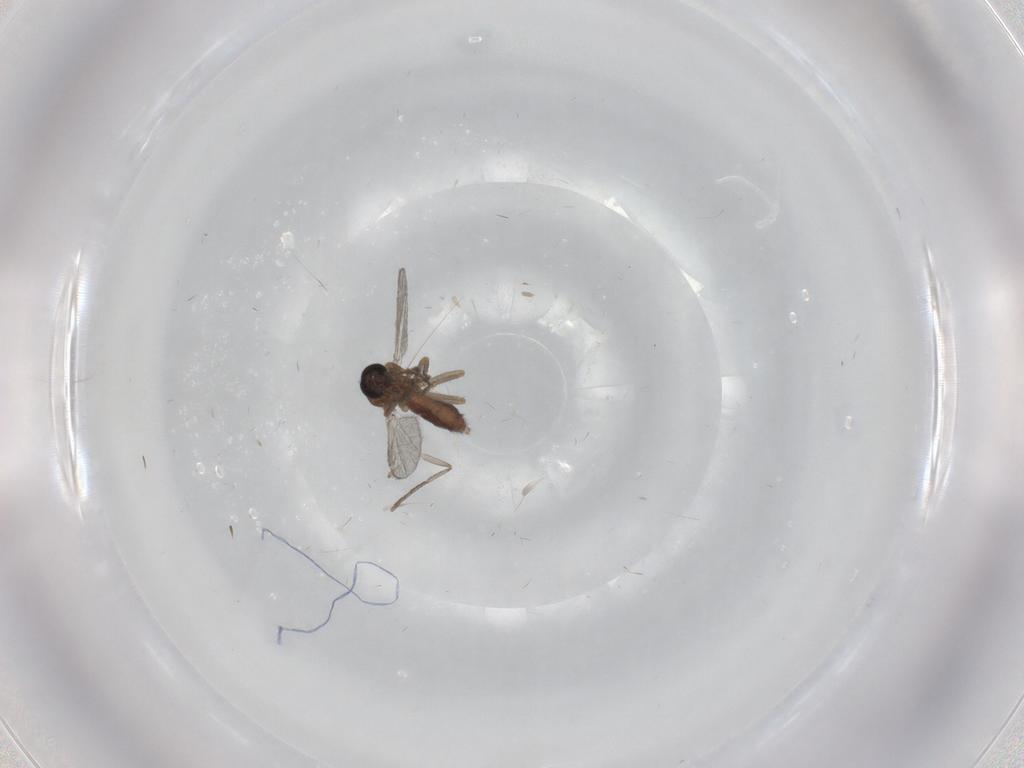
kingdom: Animalia
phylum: Arthropoda
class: Insecta
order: Diptera
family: Ceratopogonidae
